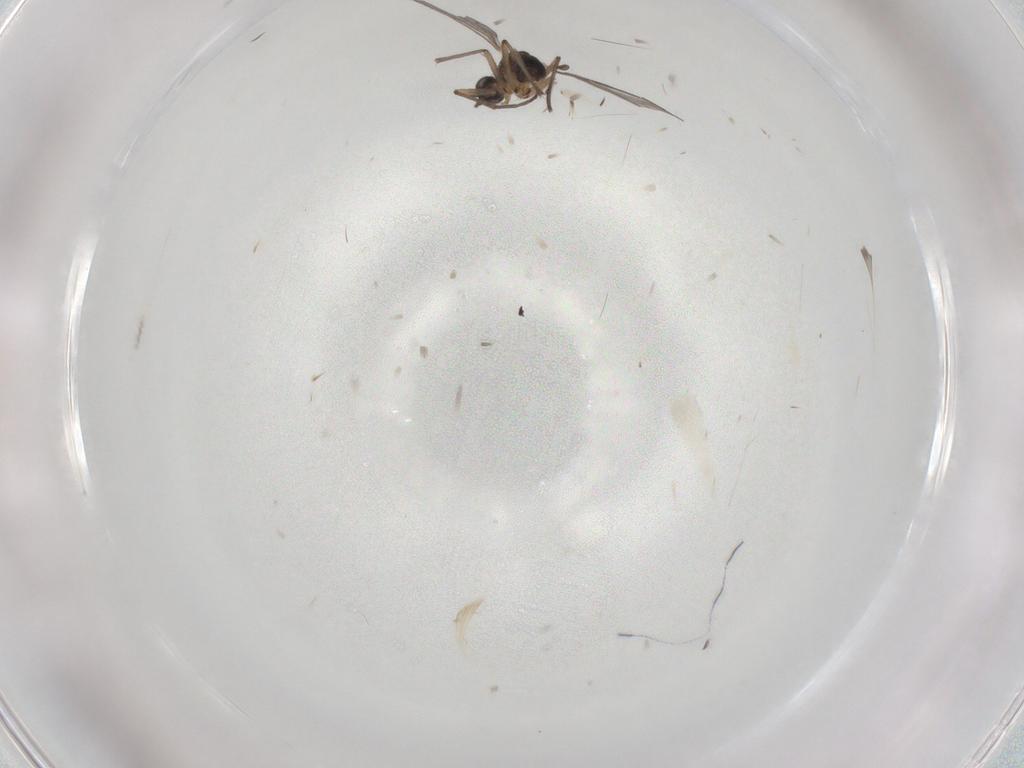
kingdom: Animalia
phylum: Arthropoda
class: Insecta
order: Diptera
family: Sciaridae
